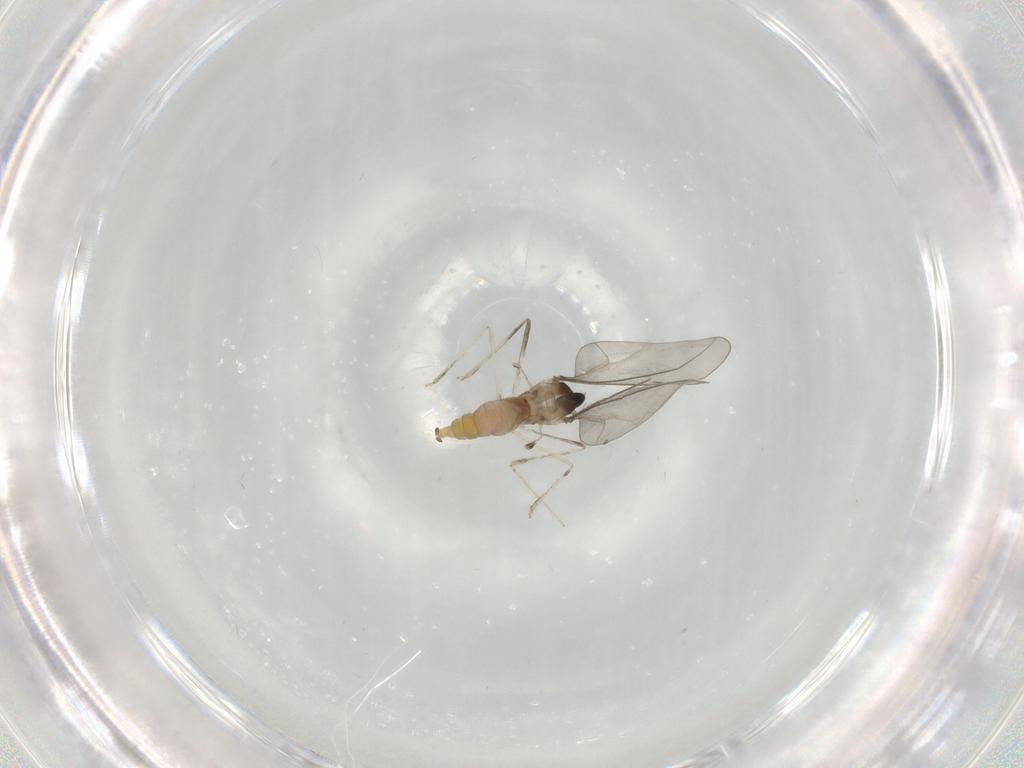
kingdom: Animalia
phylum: Arthropoda
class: Insecta
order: Diptera
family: Cecidomyiidae
